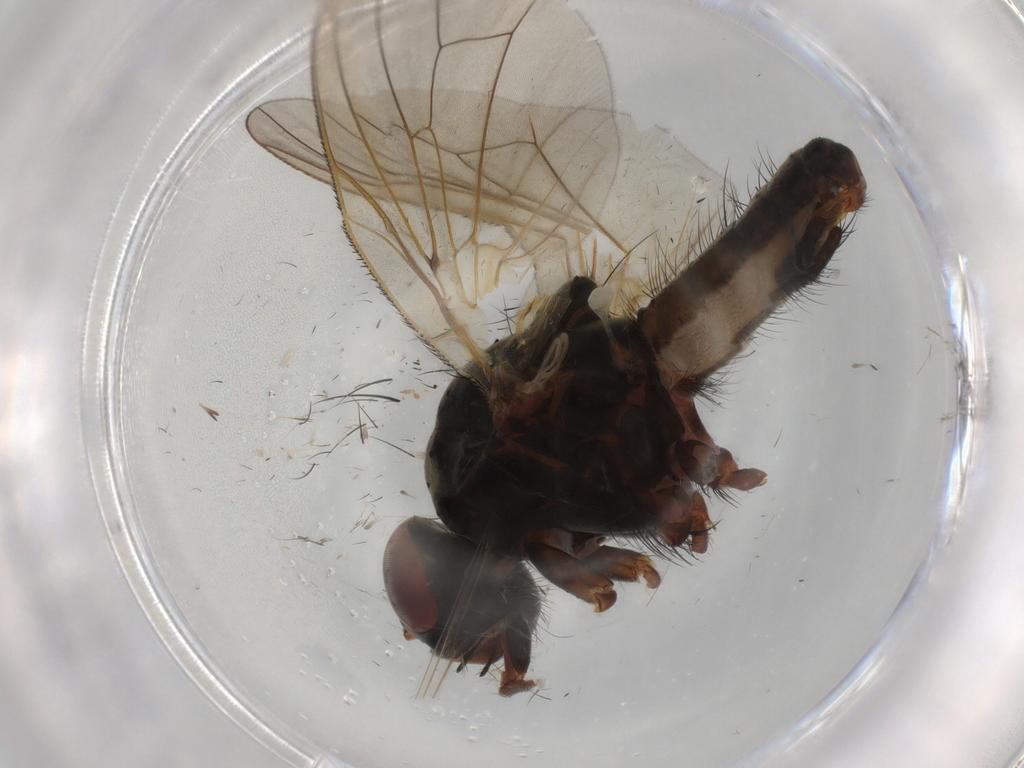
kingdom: Animalia
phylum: Arthropoda
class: Insecta
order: Diptera
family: Anthomyiidae
